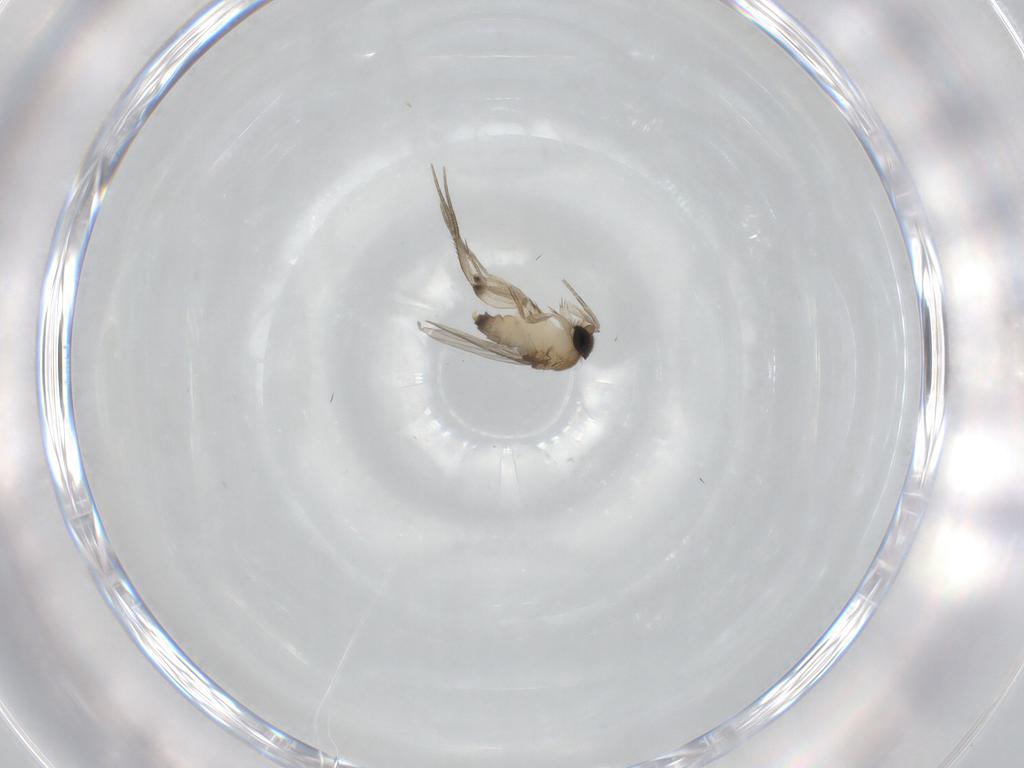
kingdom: Animalia
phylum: Arthropoda
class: Insecta
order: Diptera
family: Phoridae
